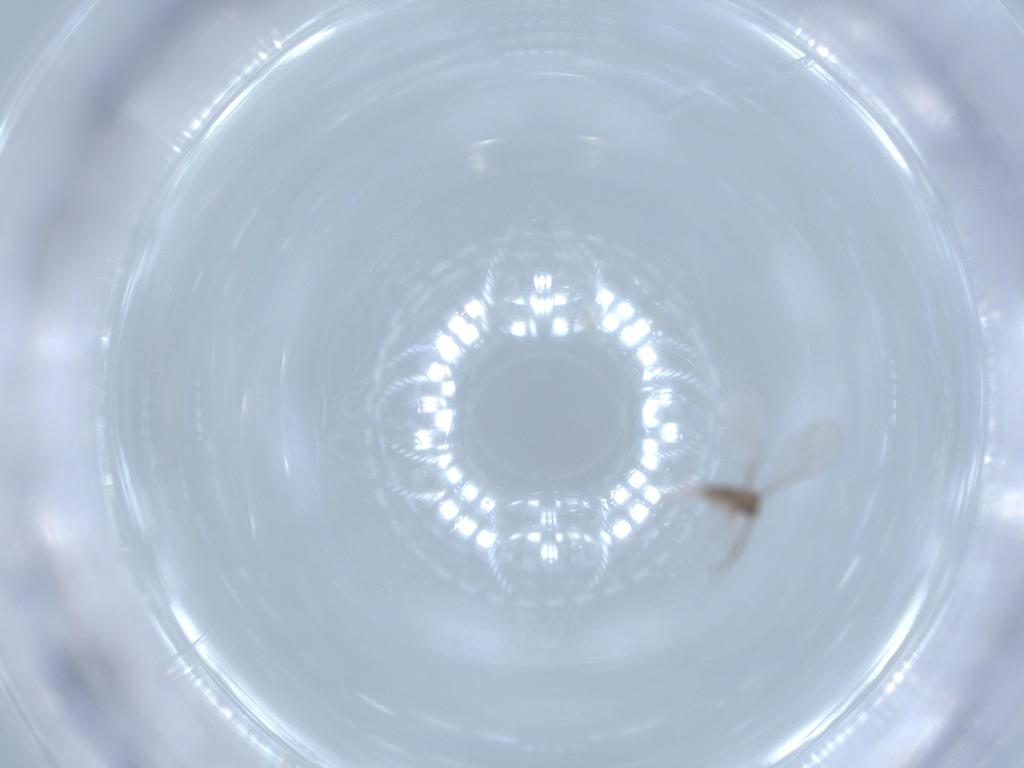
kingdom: Animalia
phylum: Arthropoda
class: Insecta
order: Diptera
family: Cecidomyiidae
